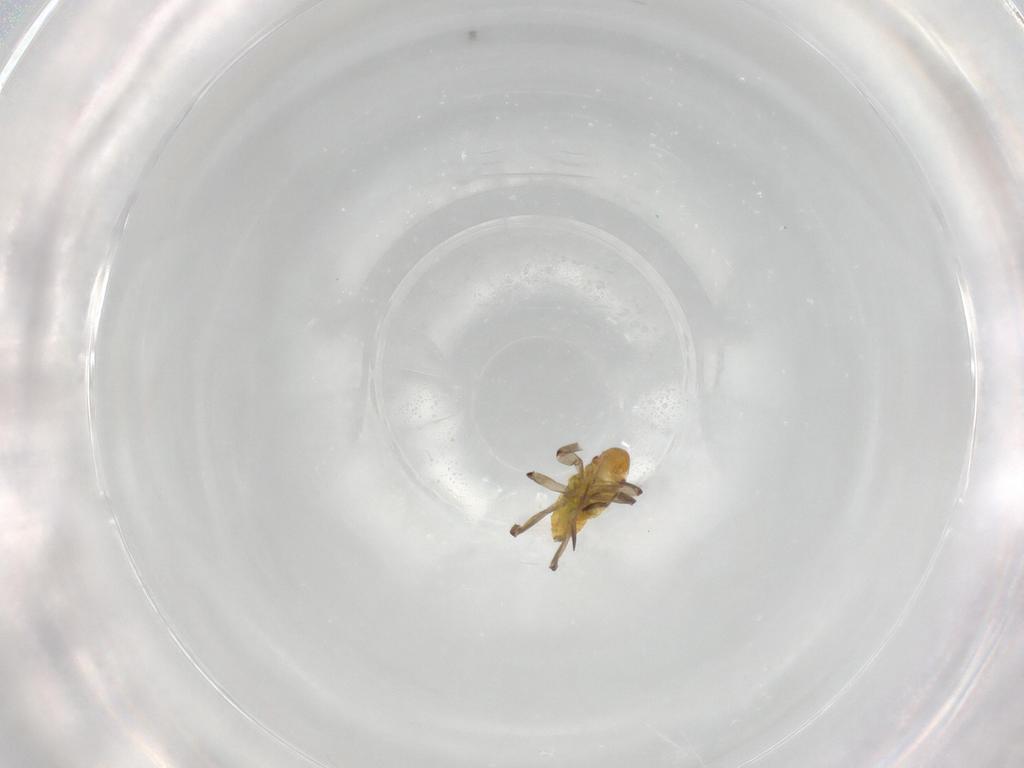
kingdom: Animalia
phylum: Arthropoda
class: Insecta
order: Hemiptera
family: Miridae
